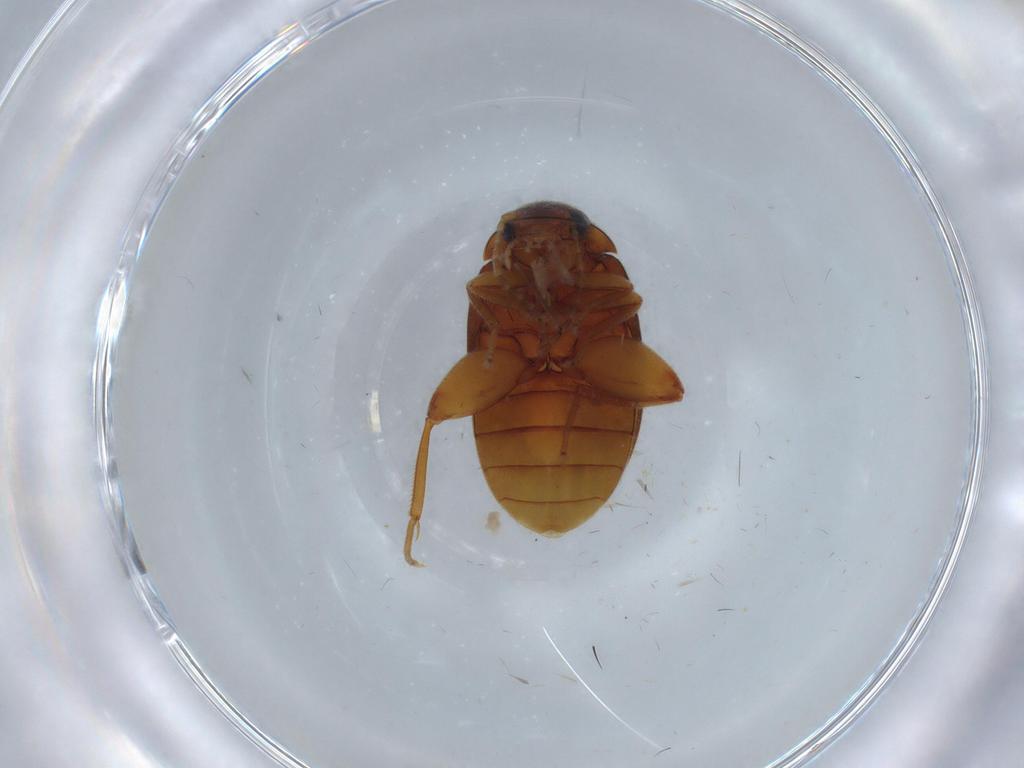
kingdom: Animalia
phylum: Arthropoda
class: Insecta
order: Coleoptera
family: Scirtidae
